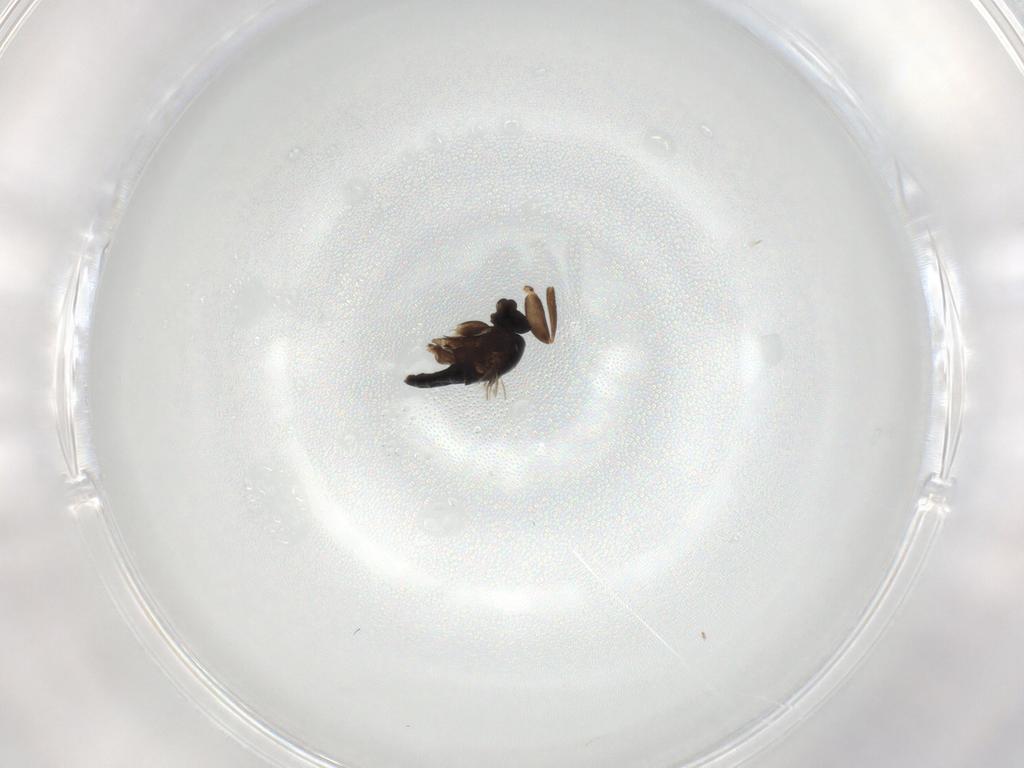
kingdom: Animalia
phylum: Arthropoda
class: Insecta
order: Diptera
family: Phoridae
